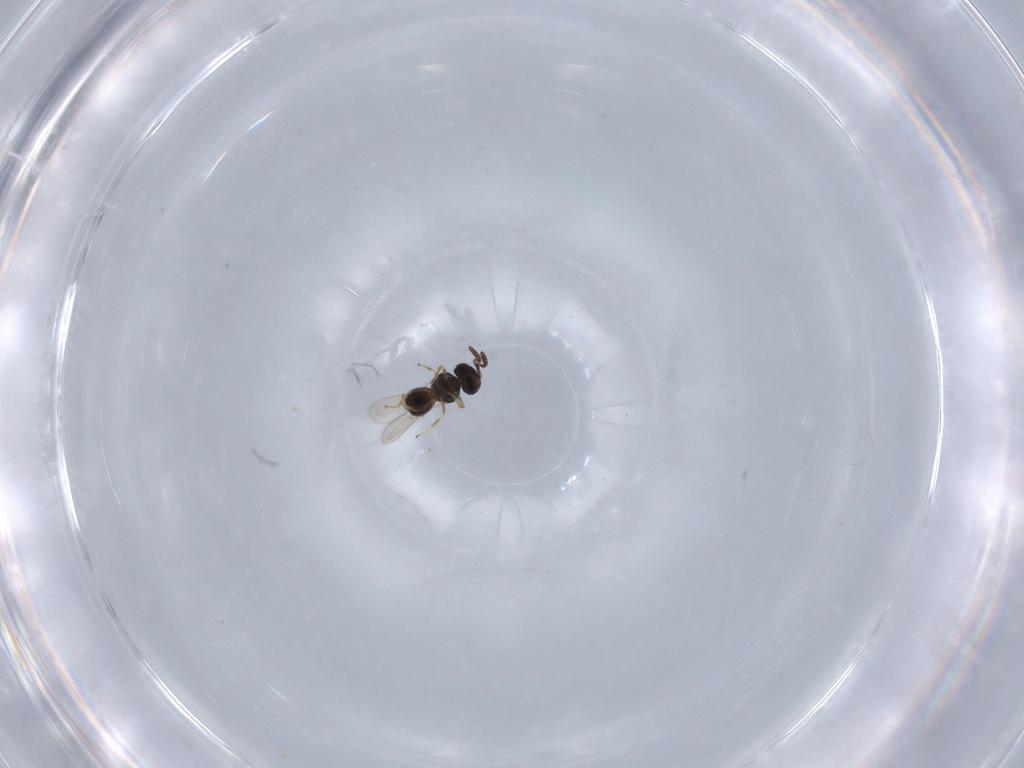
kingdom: Animalia
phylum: Arthropoda
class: Insecta
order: Hymenoptera
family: Scelionidae
